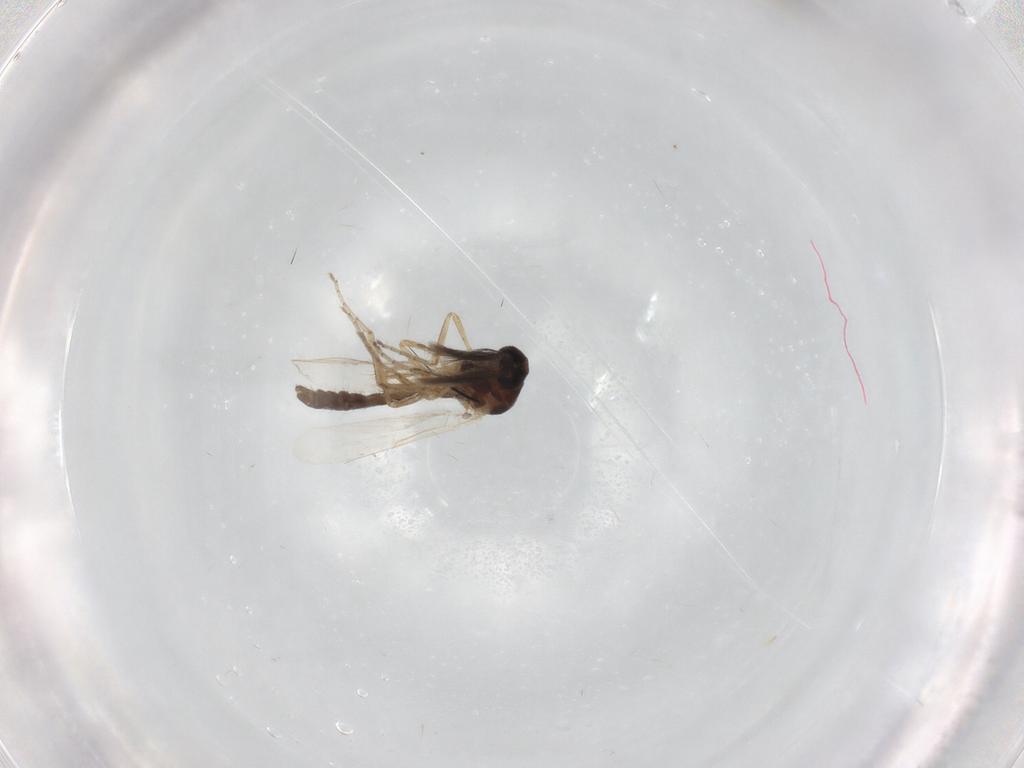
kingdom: Animalia
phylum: Arthropoda
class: Insecta
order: Diptera
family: Ceratopogonidae
